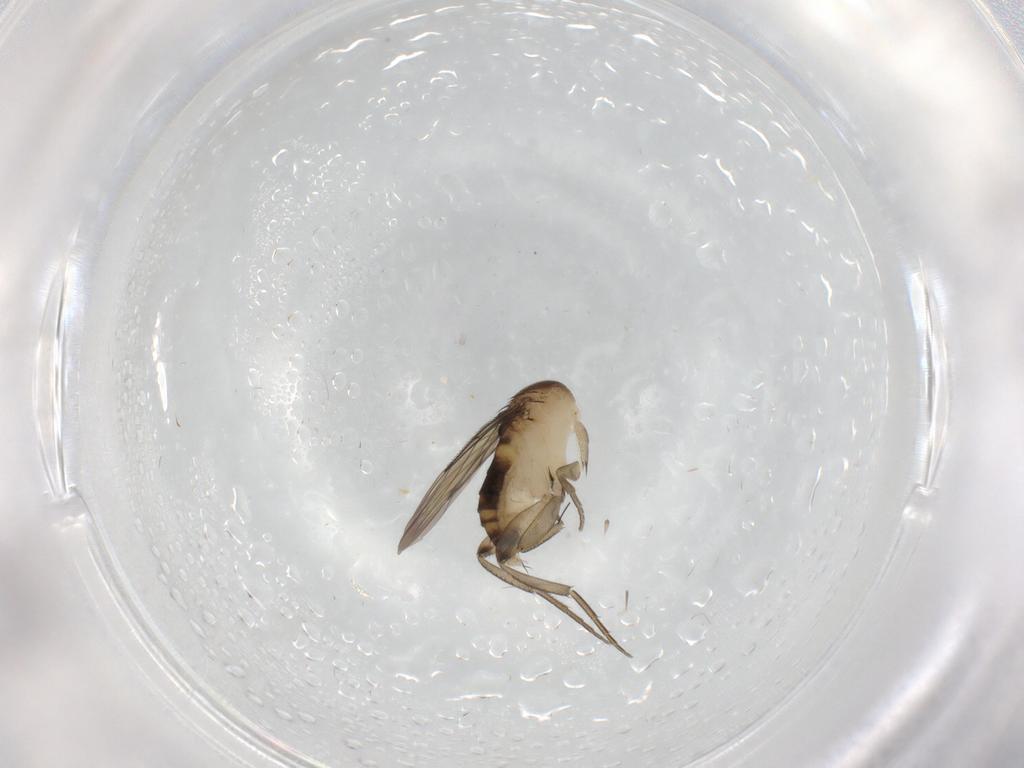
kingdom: Animalia
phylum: Arthropoda
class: Insecta
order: Diptera
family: Phoridae
